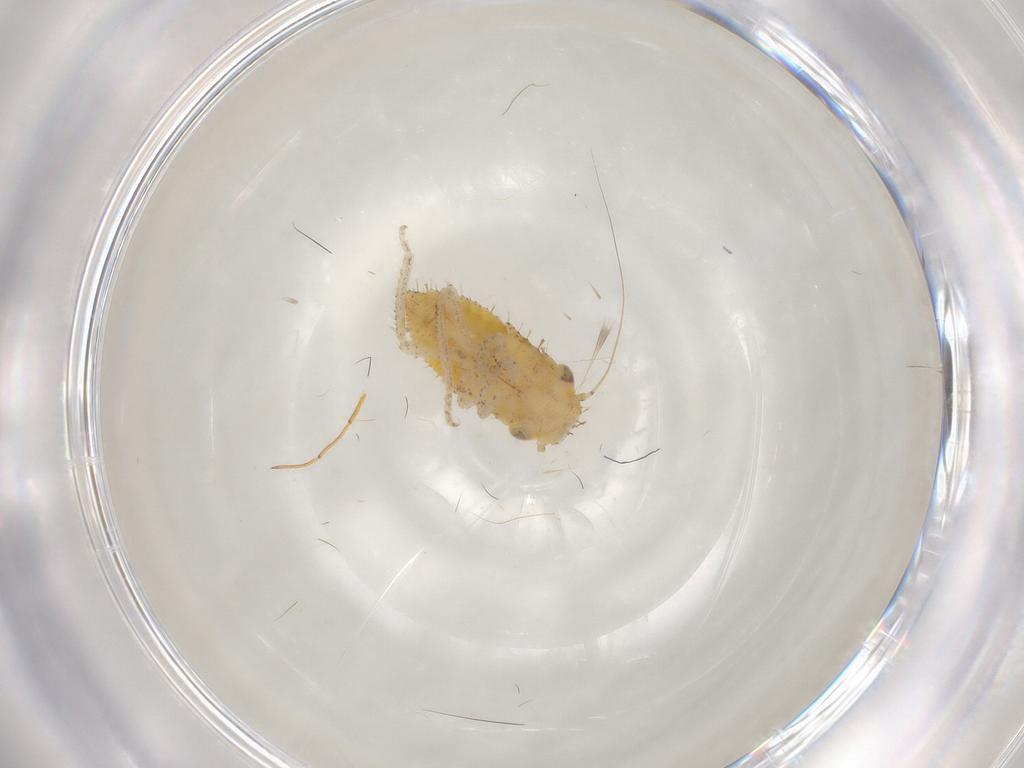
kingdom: Animalia
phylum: Arthropoda
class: Insecta
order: Hemiptera
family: Cicadellidae
